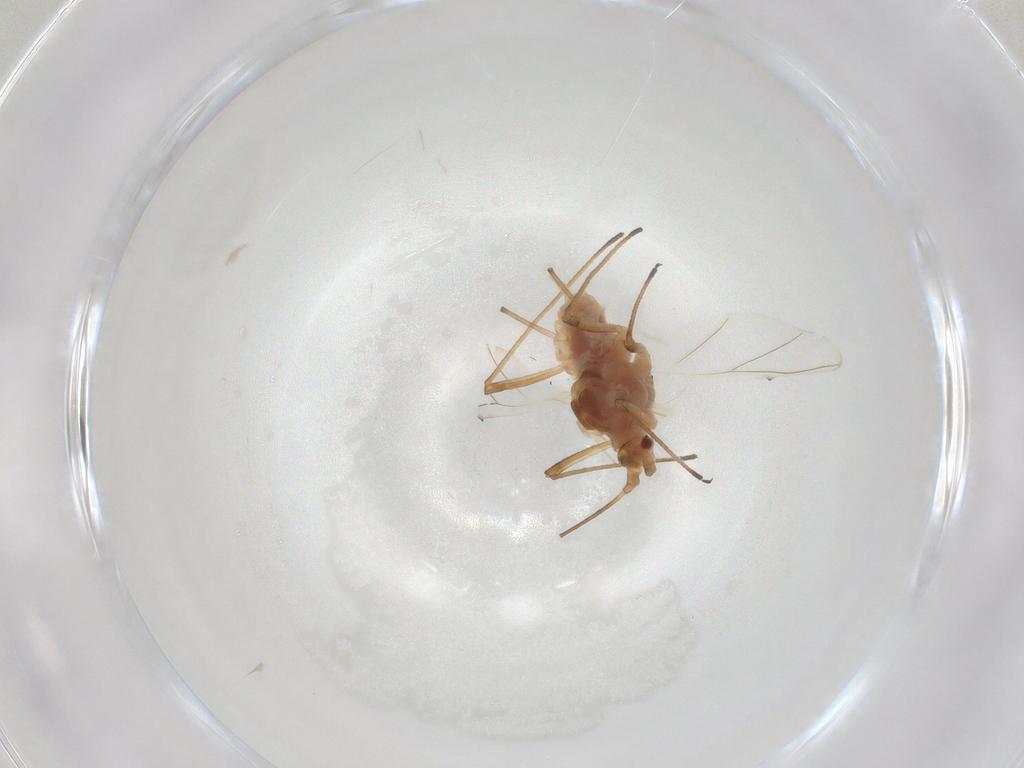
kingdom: Animalia
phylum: Arthropoda
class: Insecta
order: Hemiptera
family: Aphididae
